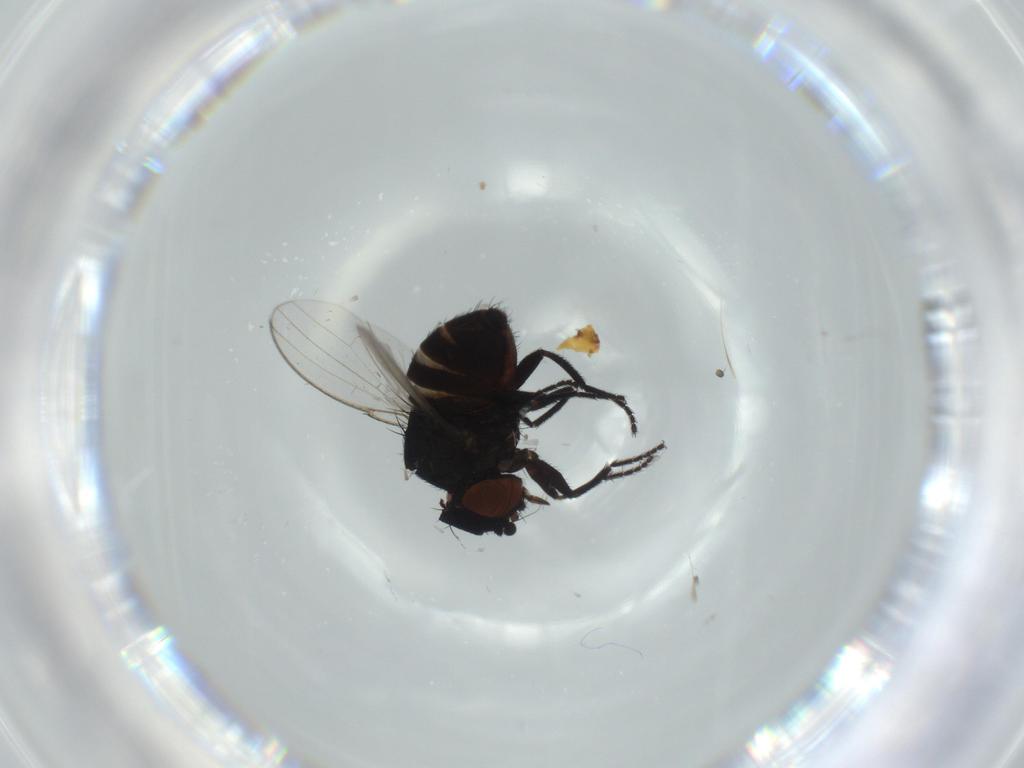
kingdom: Animalia
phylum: Arthropoda
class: Insecta
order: Diptera
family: Milichiidae
